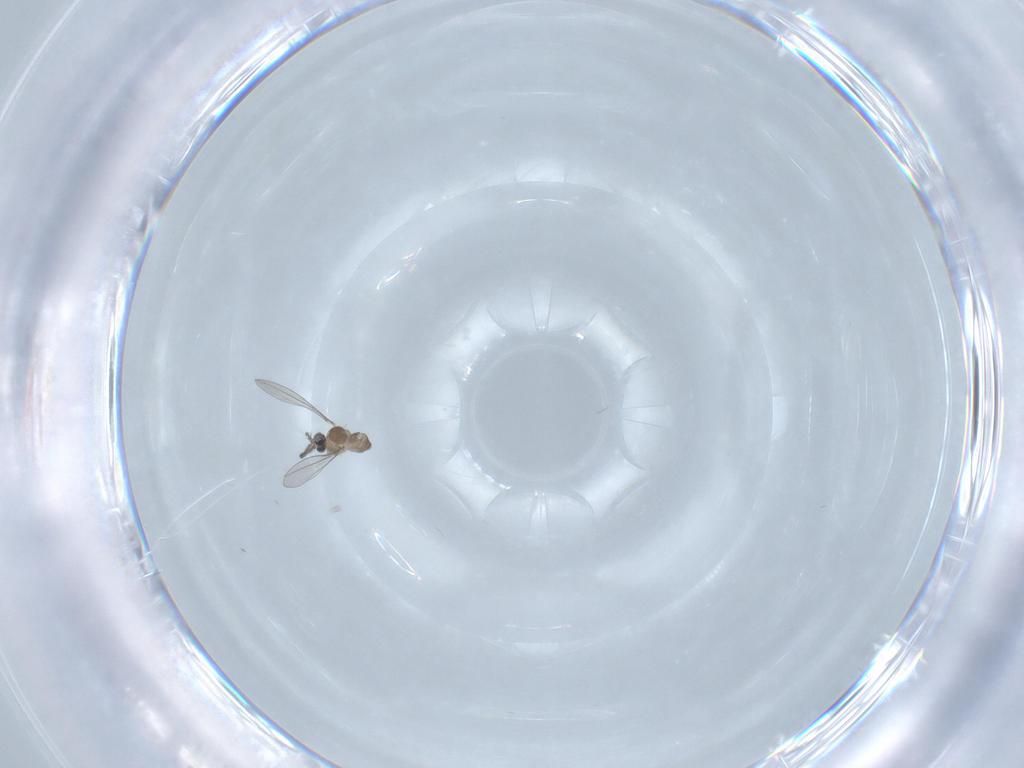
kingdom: Animalia
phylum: Arthropoda
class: Insecta
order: Diptera
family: Cecidomyiidae
